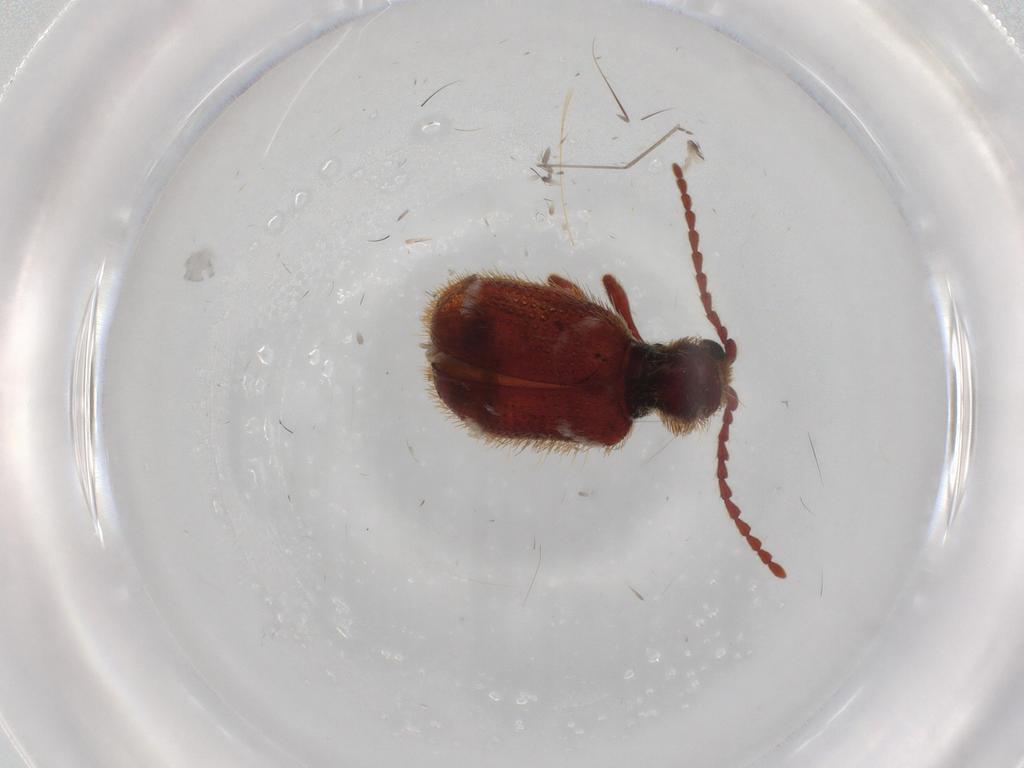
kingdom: Animalia
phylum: Arthropoda
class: Insecta
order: Coleoptera
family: Ptinidae
